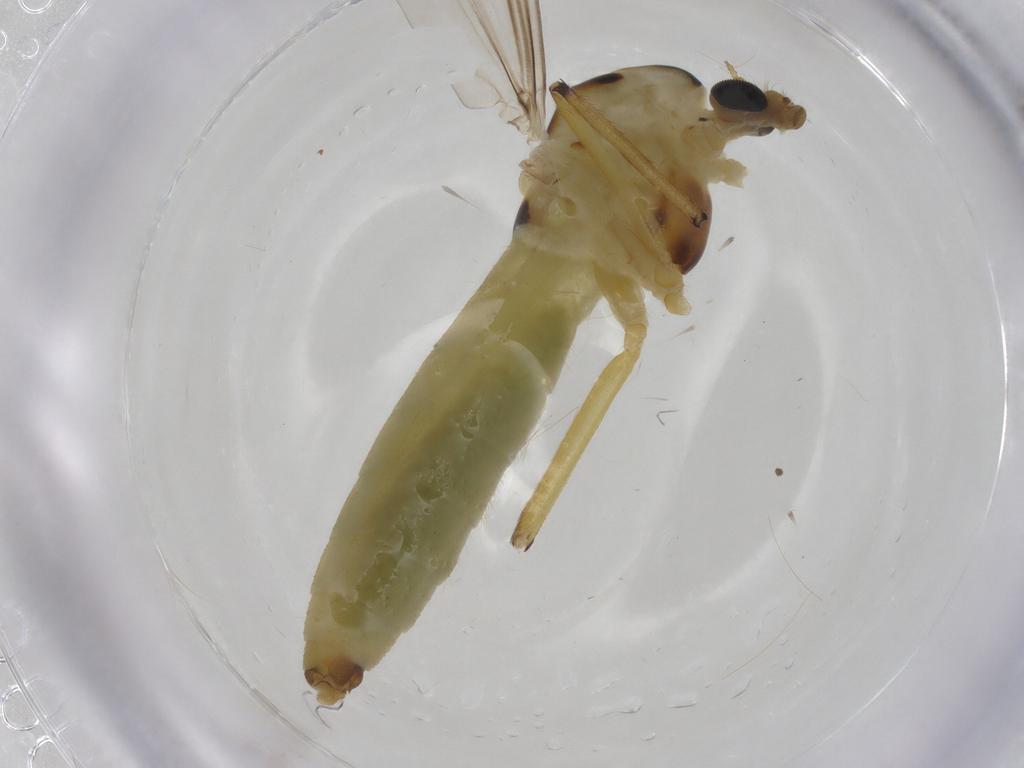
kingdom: Animalia
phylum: Arthropoda
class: Insecta
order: Diptera
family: Chironomidae
